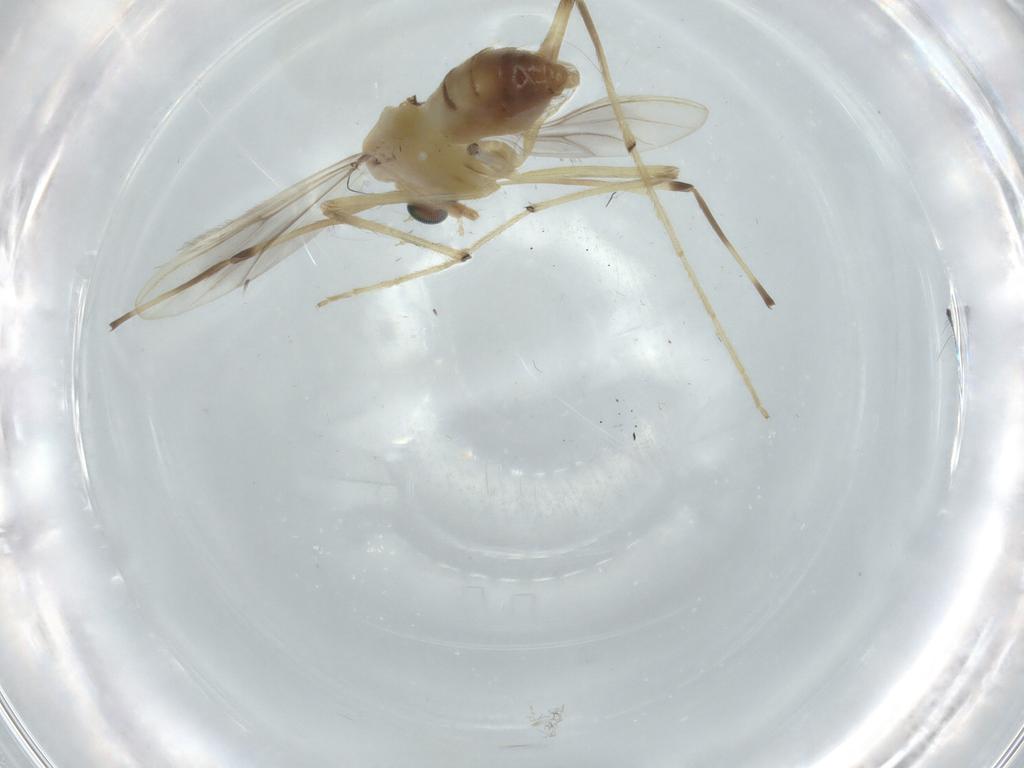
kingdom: Animalia
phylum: Arthropoda
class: Insecta
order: Diptera
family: Chironomidae
